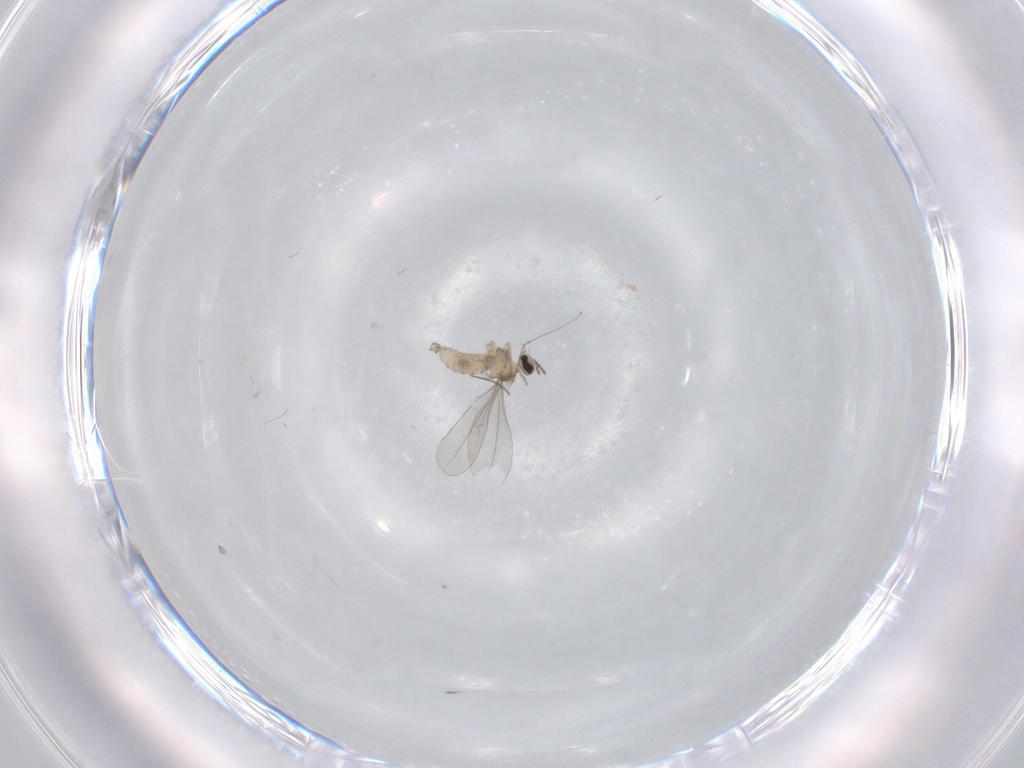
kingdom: Animalia
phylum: Arthropoda
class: Insecta
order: Diptera
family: Cecidomyiidae
